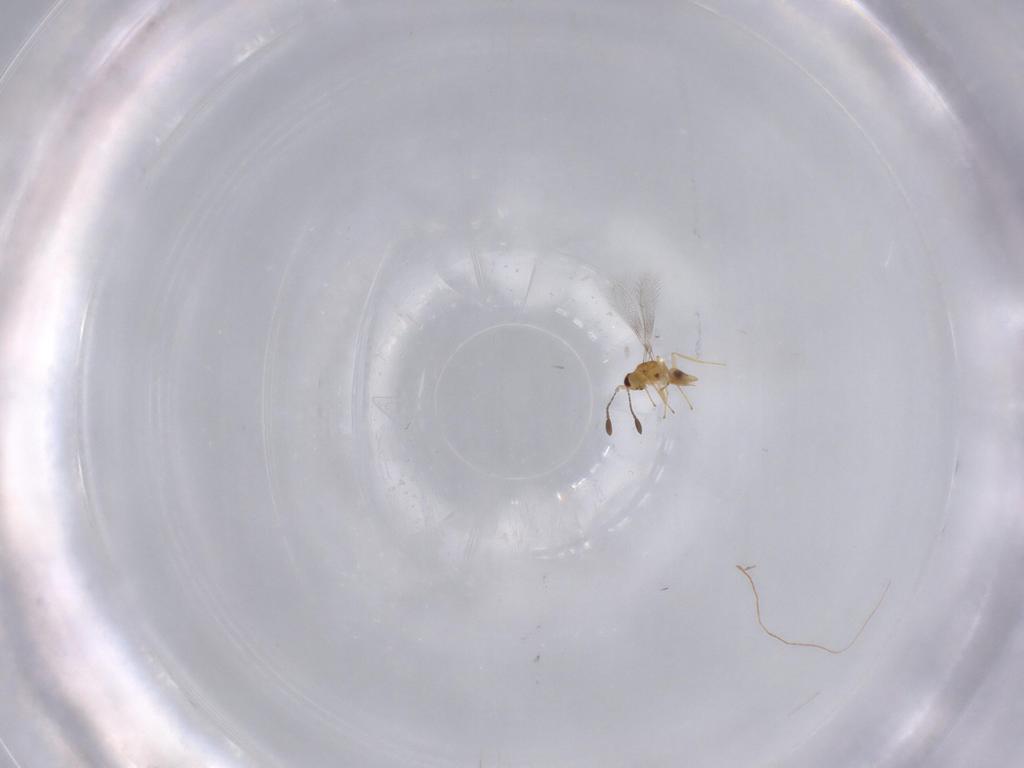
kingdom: Animalia
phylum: Arthropoda
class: Insecta
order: Hymenoptera
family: Mymaridae
